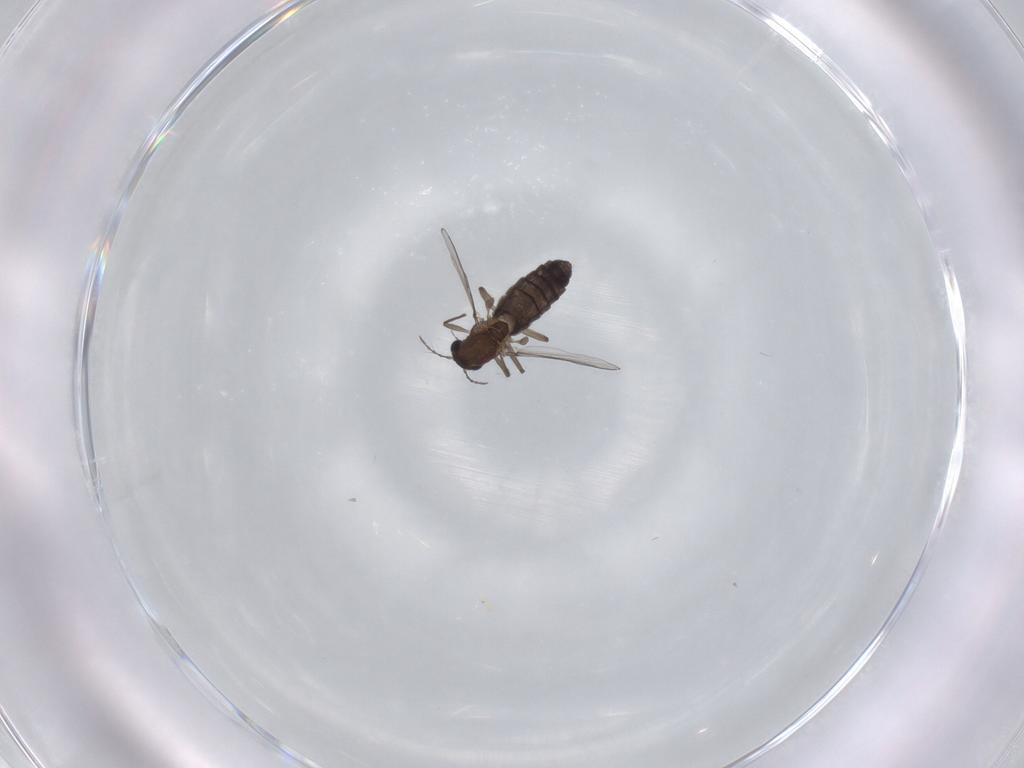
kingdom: Animalia
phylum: Arthropoda
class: Insecta
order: Diptera
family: Chironomidae
